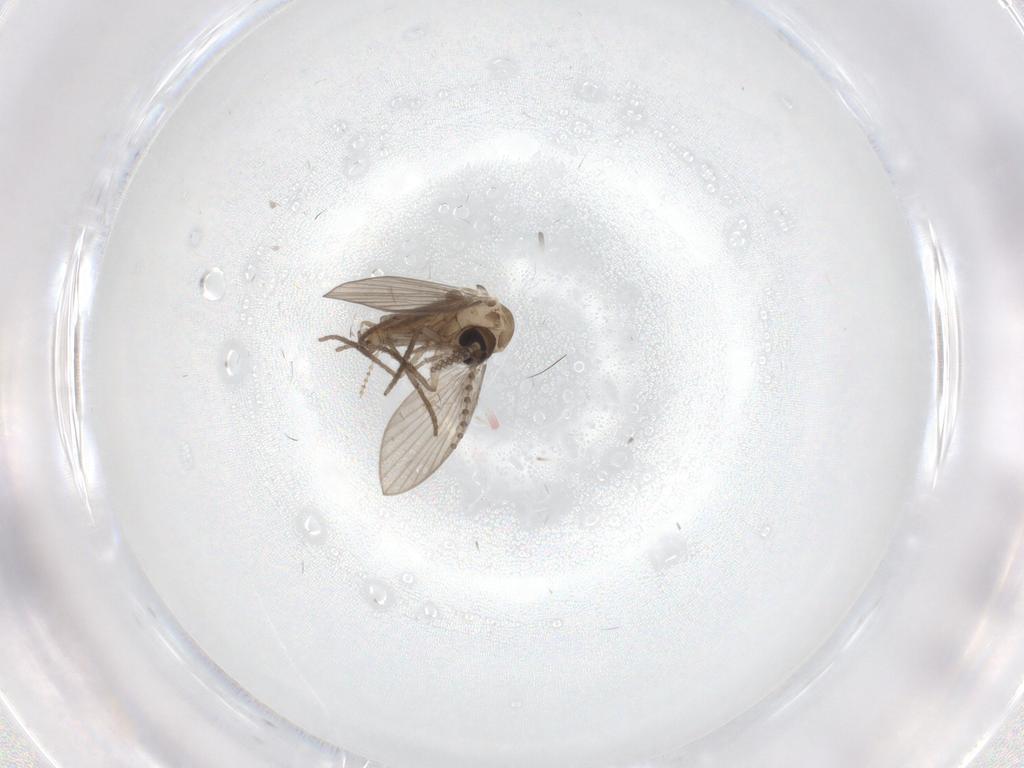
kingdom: Animalia
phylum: Arthropoda
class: Insecta
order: Diptera
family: Psychodidae
